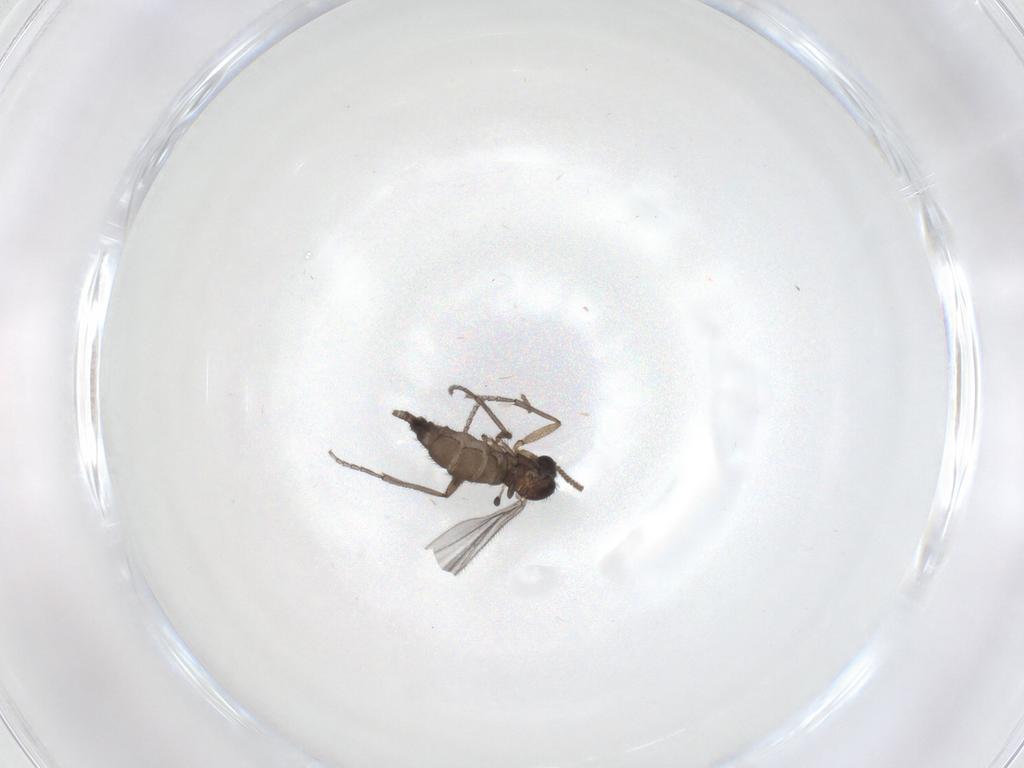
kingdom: Animalia
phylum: Arthropoda
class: Insecta
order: Diptera
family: Sciaridae
